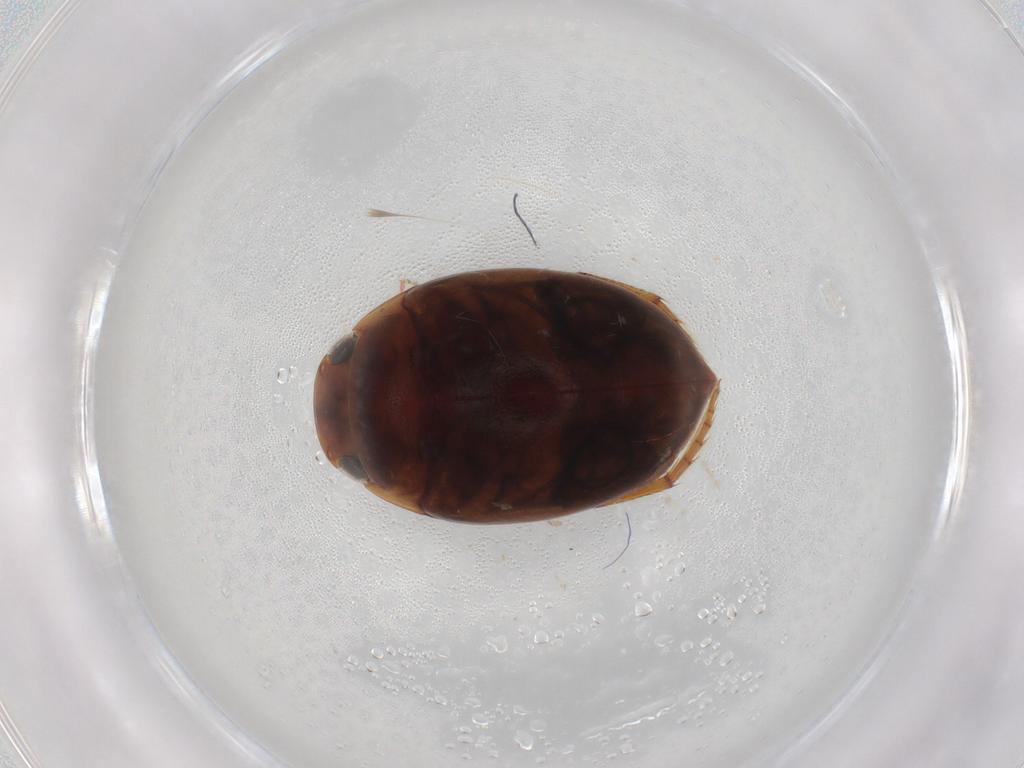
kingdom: Animalia
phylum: Arthropoda
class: Insecta
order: Coleoptera
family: Dytiscidae
